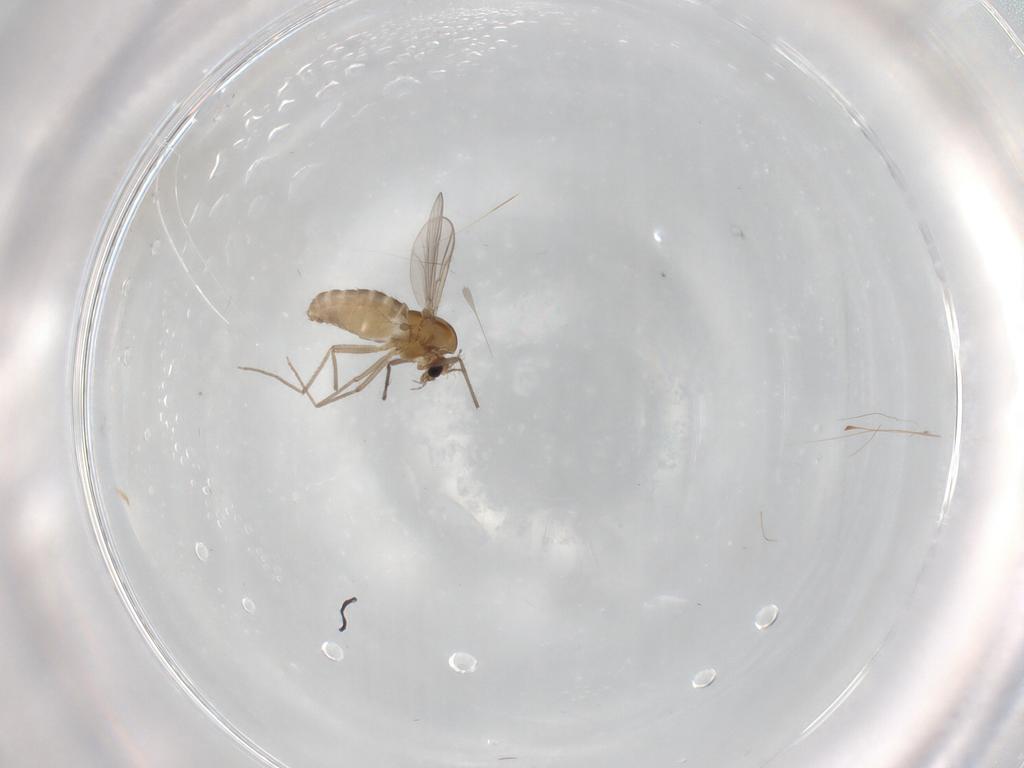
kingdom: Animalia
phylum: Arthropoda
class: Insecta
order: Diptera
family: Chironomidae
